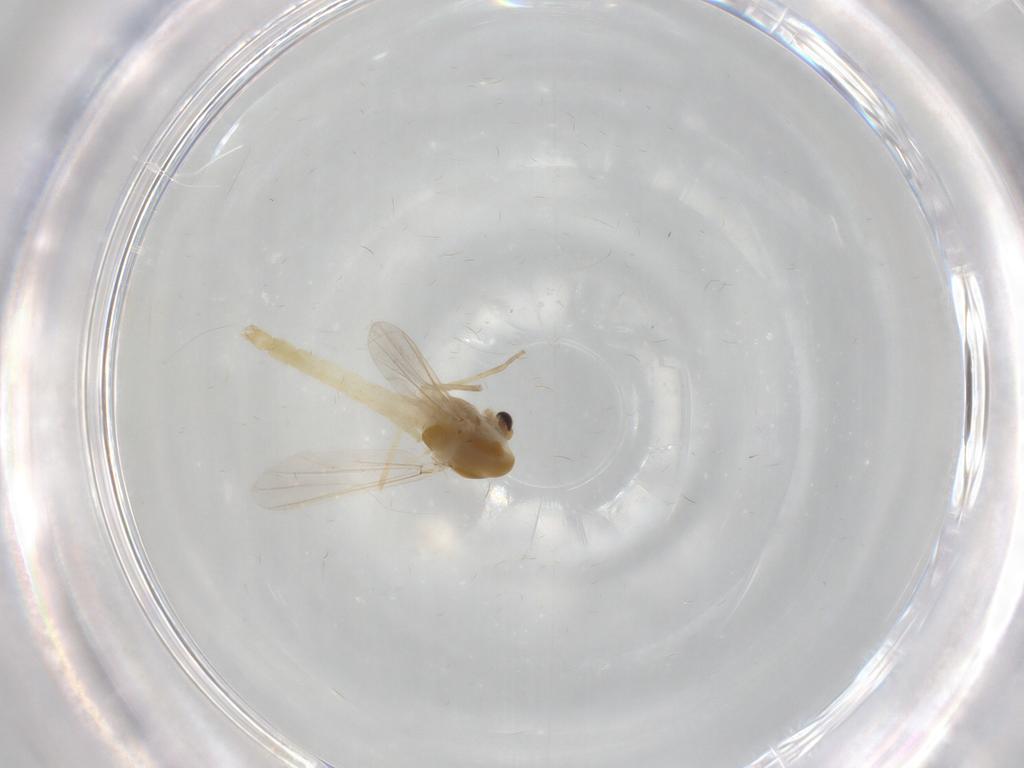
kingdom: Animalia
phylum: Arthropoda
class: Insecta
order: Diptera
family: Chironomidae
